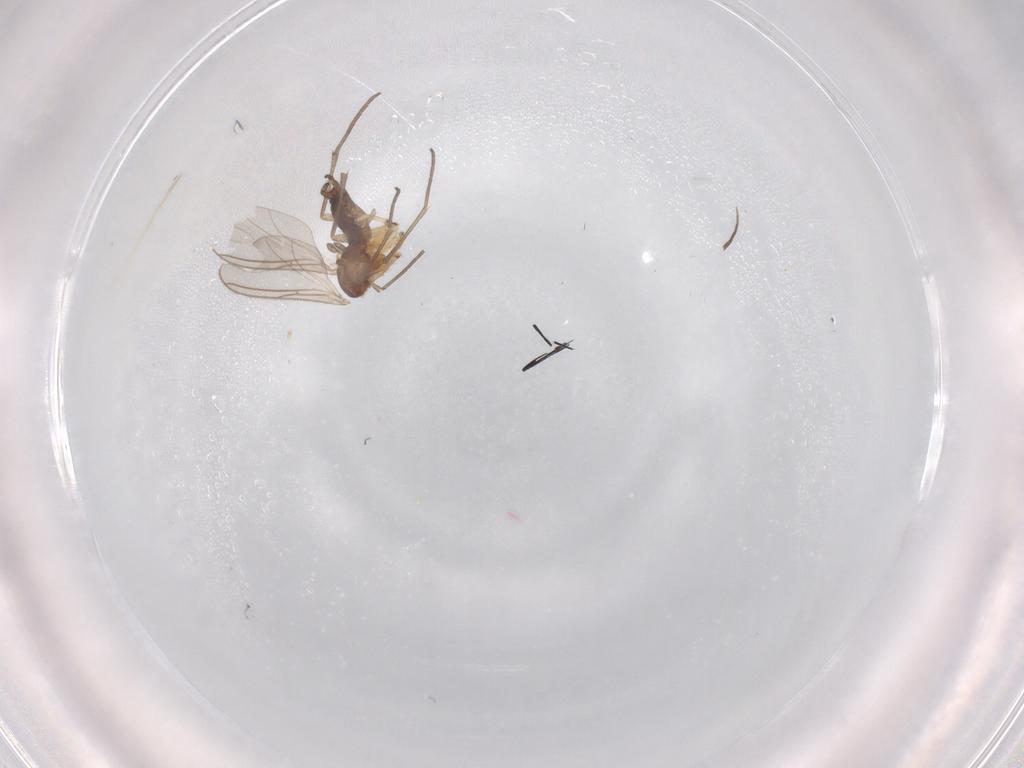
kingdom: Animalia
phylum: Arthropoda
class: Insecta
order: Diptera
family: Sciaridae
